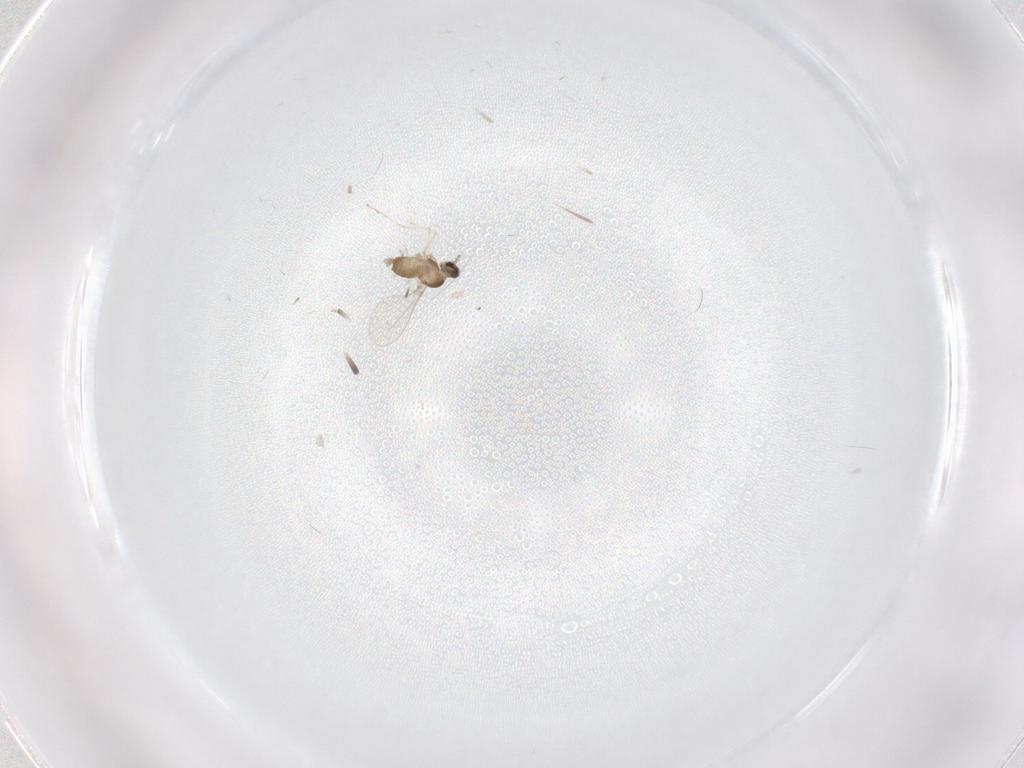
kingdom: Animalia
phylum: Arthropoda
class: Insecta
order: Diptera
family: Cecidomyiidae
